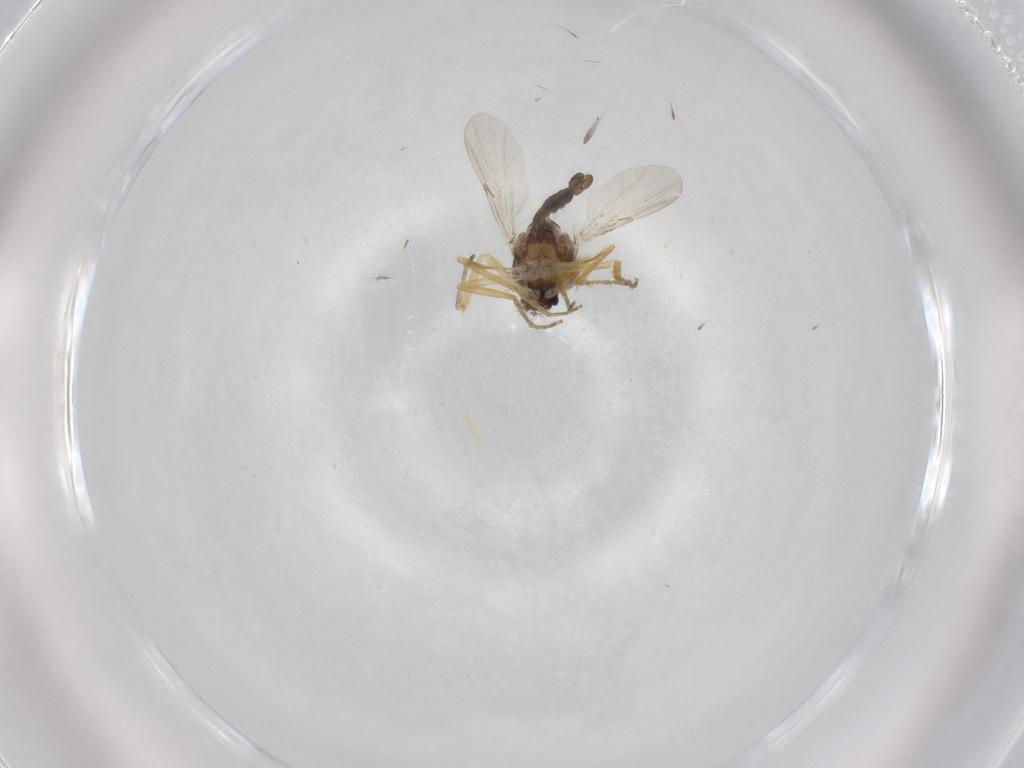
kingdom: Animalia
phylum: Arthropoda
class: Insecta
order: Diptera
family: Ceratopogonidae
